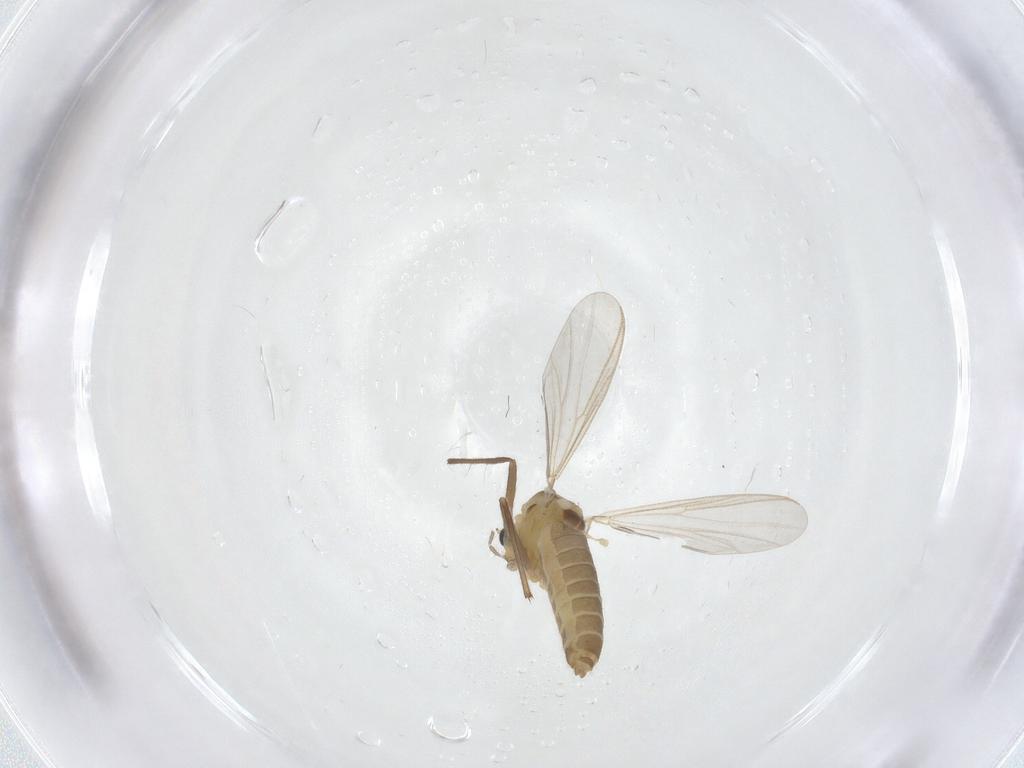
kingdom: Animalia
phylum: Arthropoda
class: Insecta
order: Diptera
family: Chironomidae
